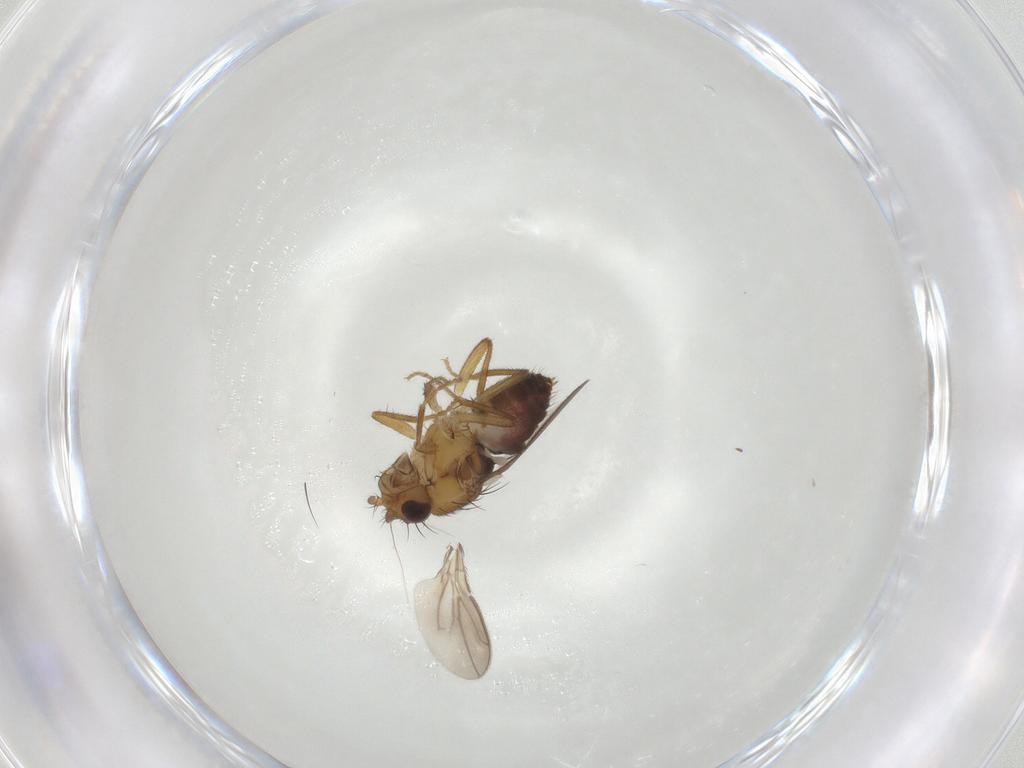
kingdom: Animalia
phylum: Arthropoda
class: Insecta
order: Diptera
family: Sphaeroceridae
